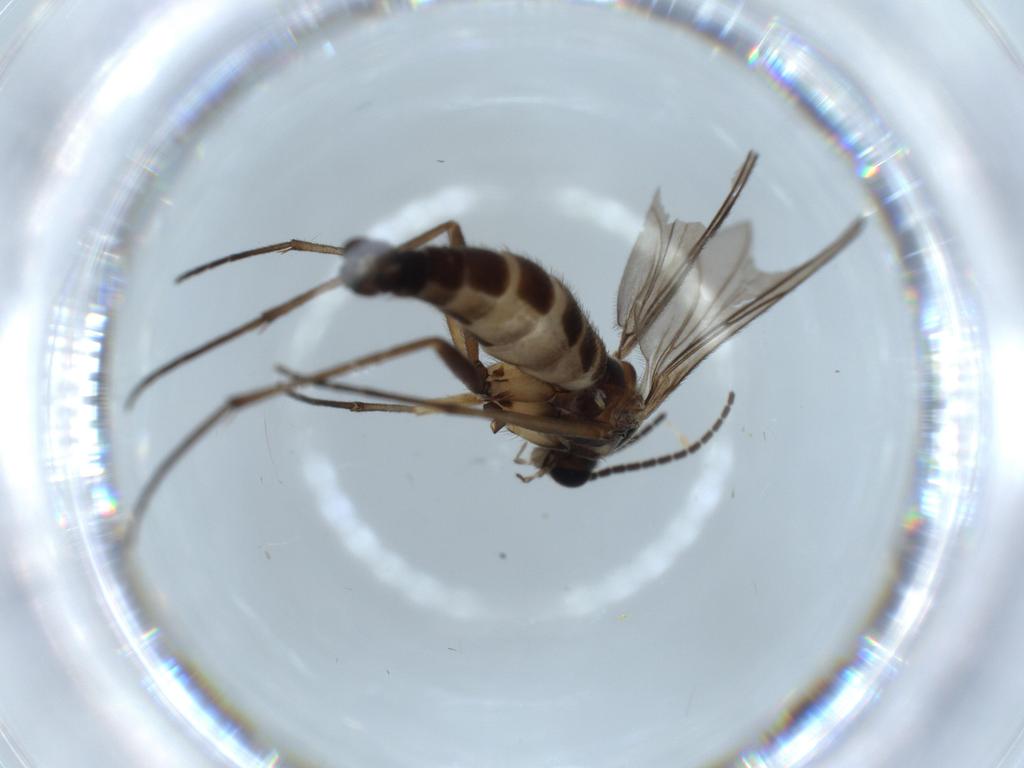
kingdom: Animalia
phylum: Arthropoda
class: Insecta
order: Diptera
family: Sciaridae
